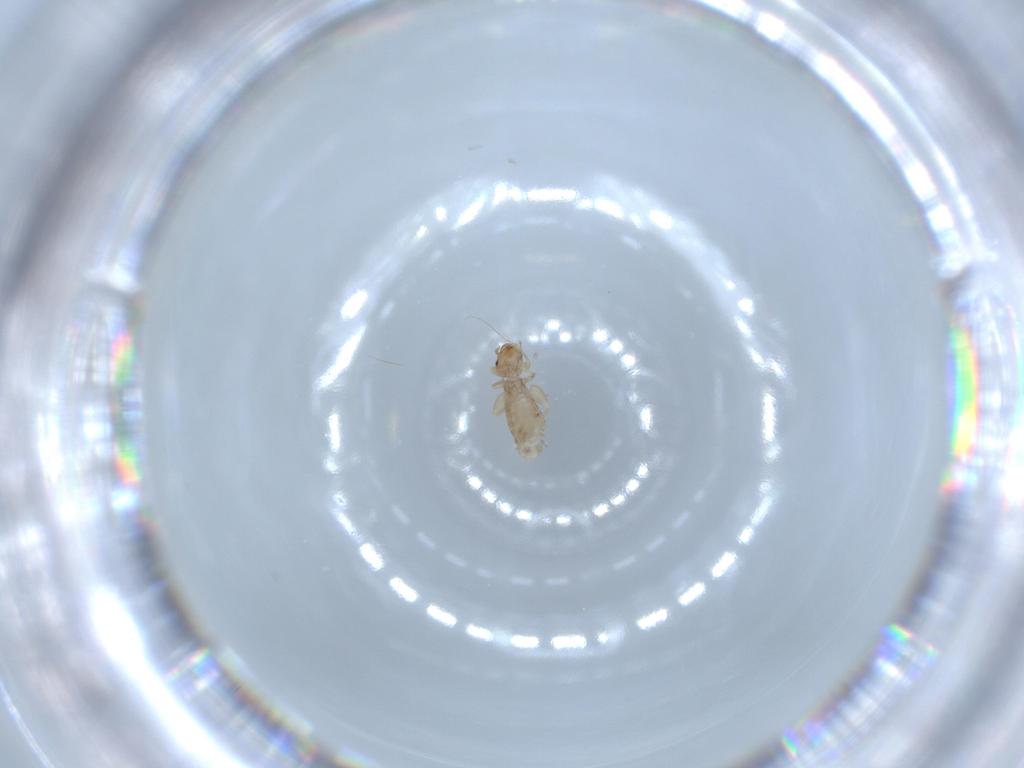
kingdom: Animalia
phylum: Arthropoda
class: Insecta
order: Psocodea
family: Liposcelididae
